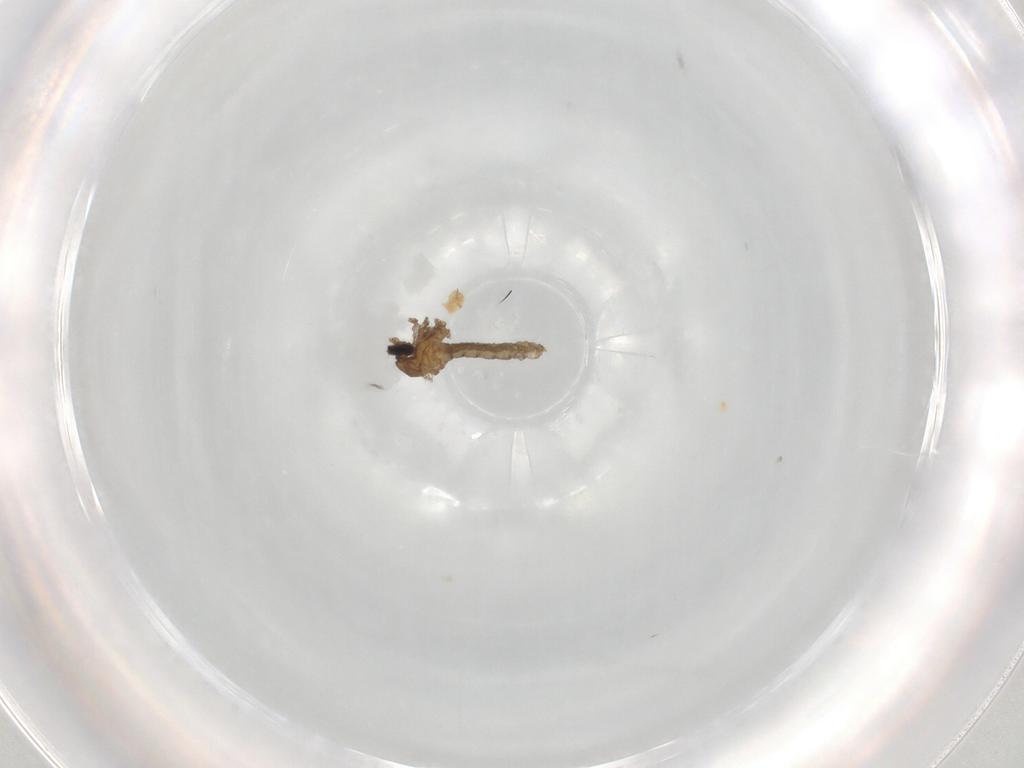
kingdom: Animalia
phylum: Arthropoda
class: Insecta
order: Diptera
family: Cecidomyiidae
